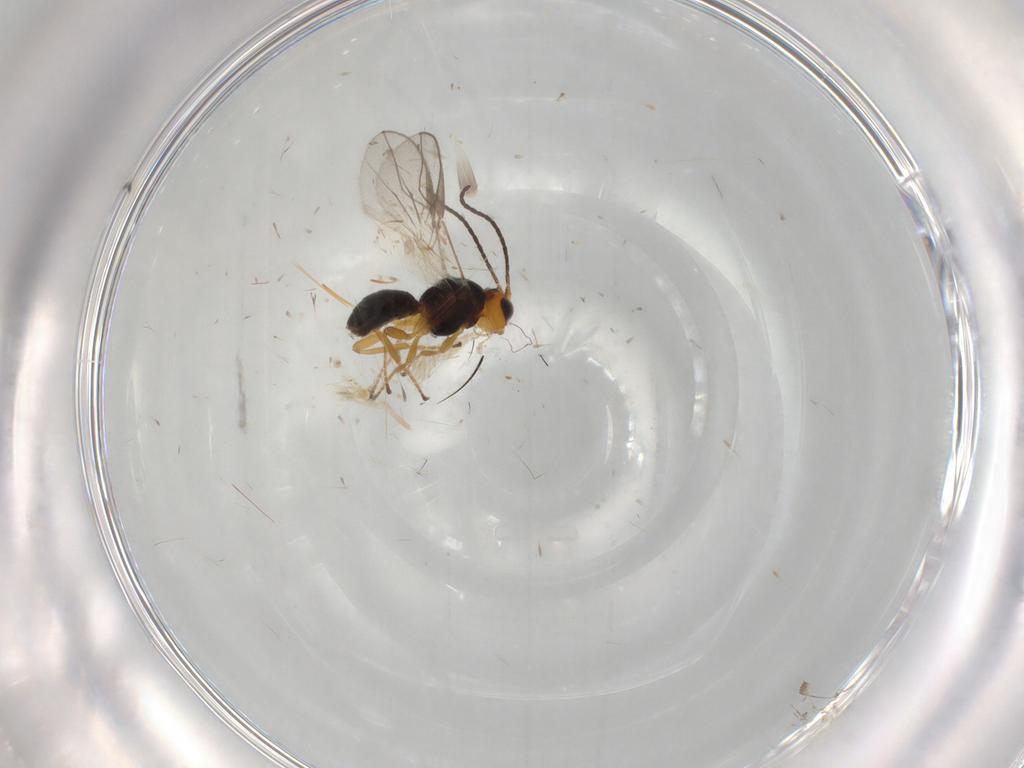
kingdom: Animalia
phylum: Arthropoda
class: Insecta
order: Hymenoptera
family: Braconidae
